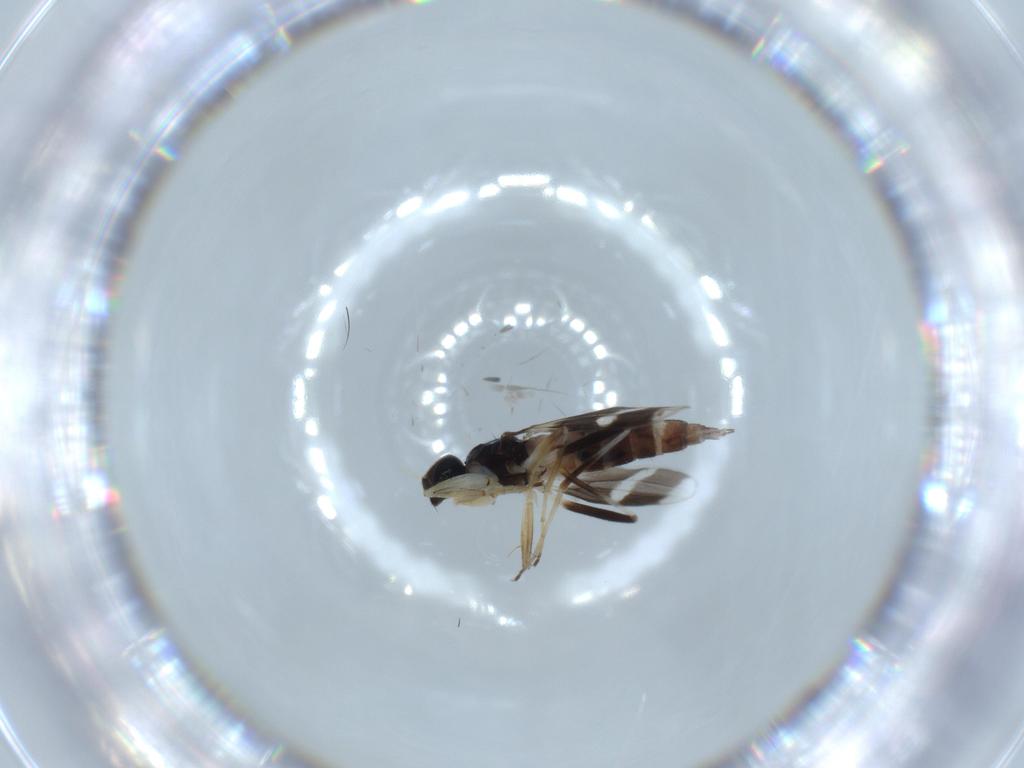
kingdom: Animalia
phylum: Arthropoda
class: Insecta
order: Diptera
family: Hybotidae
